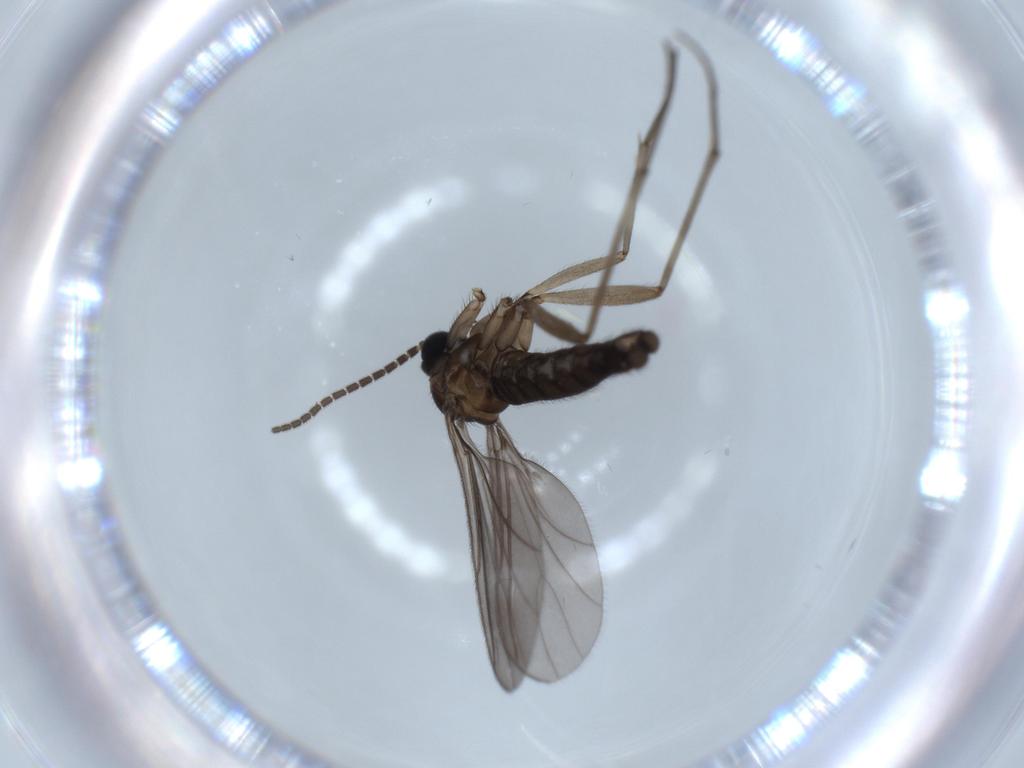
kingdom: Animalia
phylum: Arthropoda
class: Insecta
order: Diptera
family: Sciaridae
